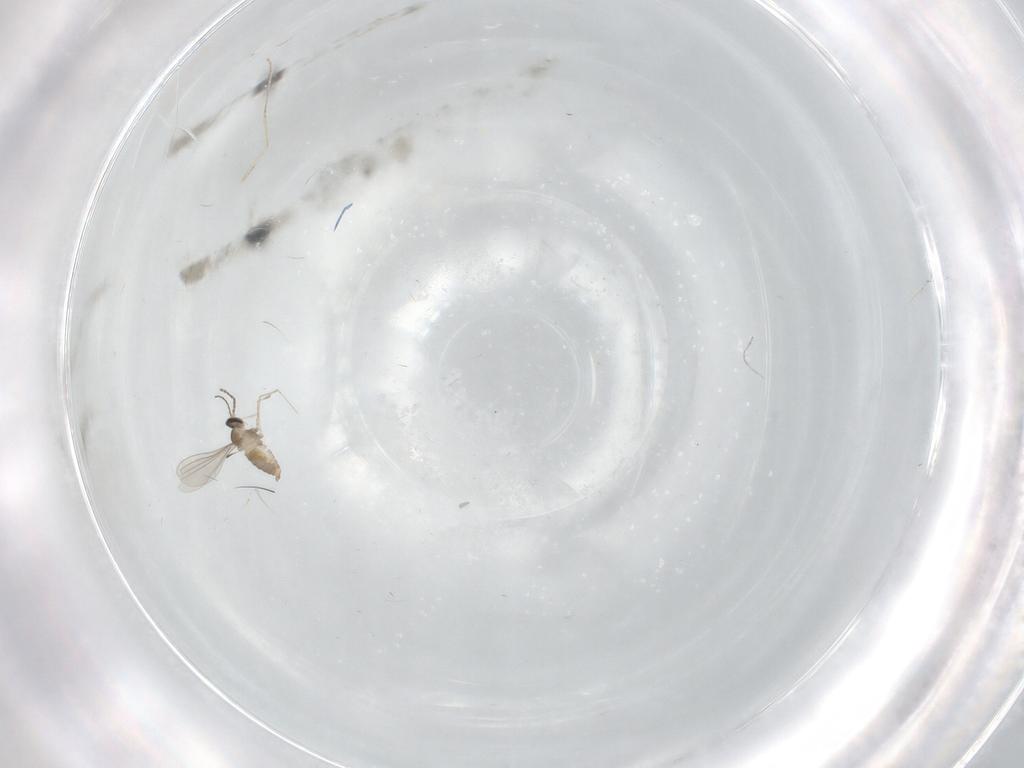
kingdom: Animalia
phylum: Arthropoda
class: Insecta
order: Diptera
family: Cecidomyiidae
